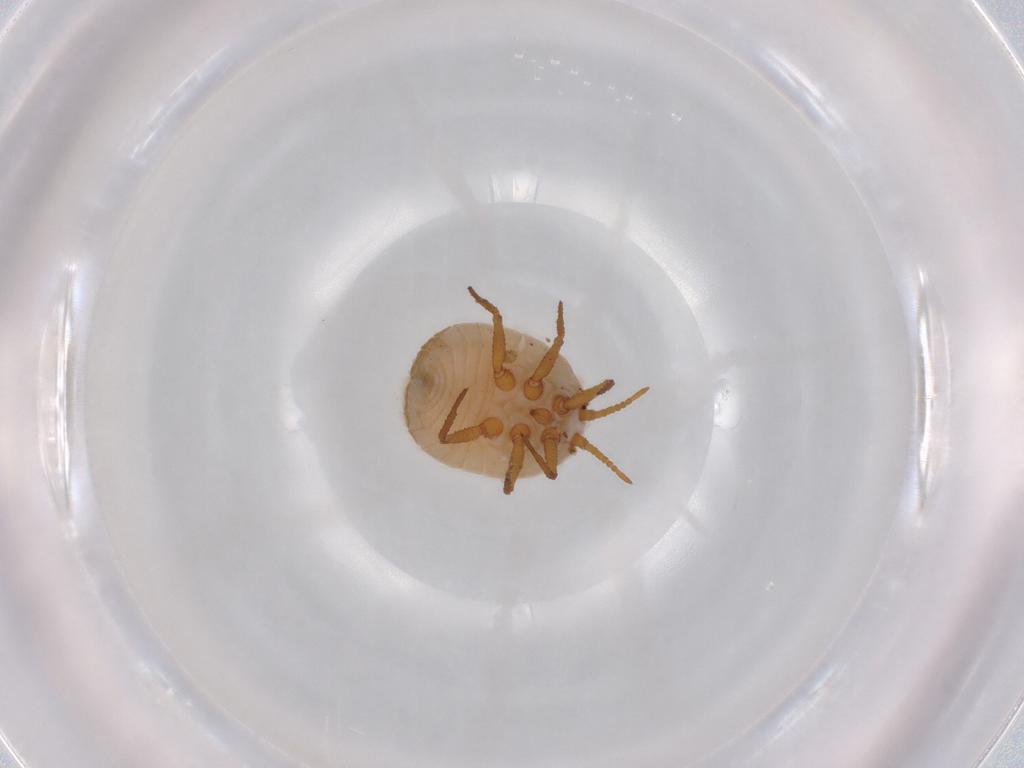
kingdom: Animalia
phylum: Arthropoda
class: Insecta
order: Hemiptera
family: Ortheziidae
